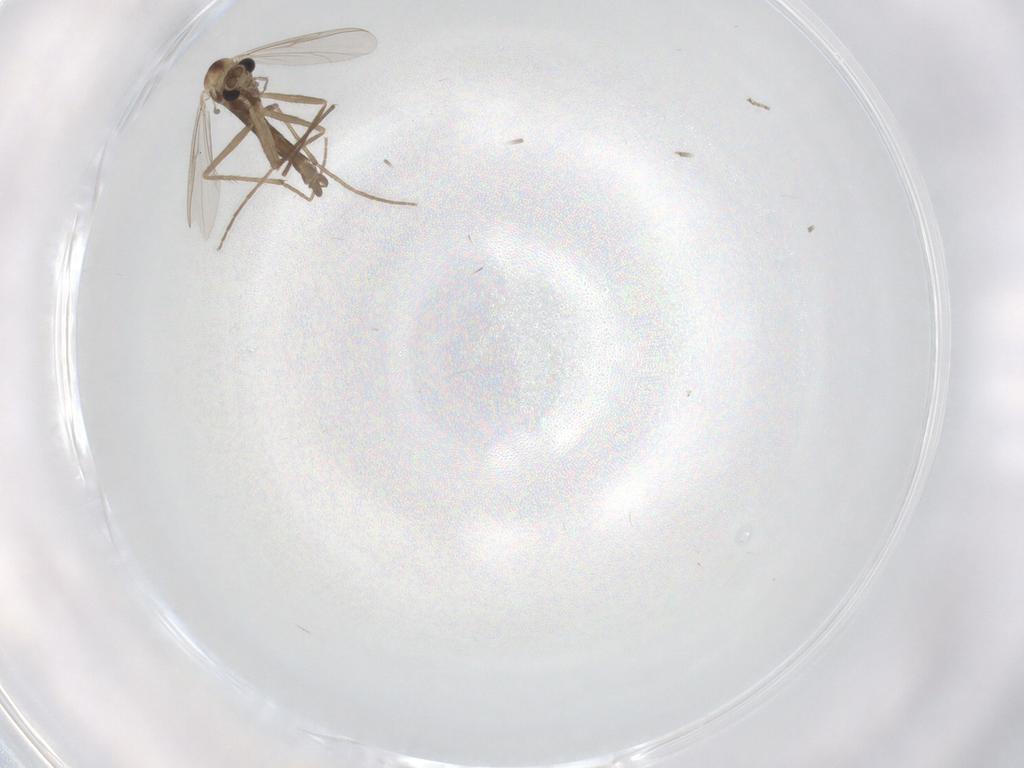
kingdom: Animalia
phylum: Arthropoda
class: Insecta
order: Diptera
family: Chironomidae
